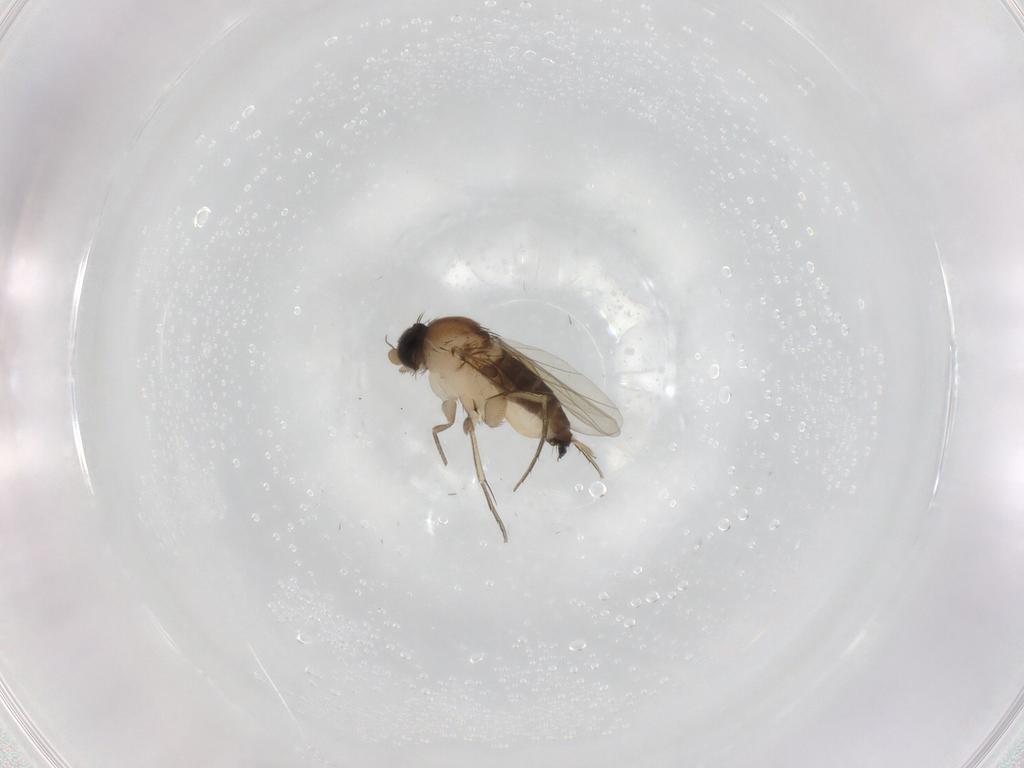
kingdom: Animalia
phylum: Arthropoda
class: Insecta
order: Diptera
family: Phoridae
